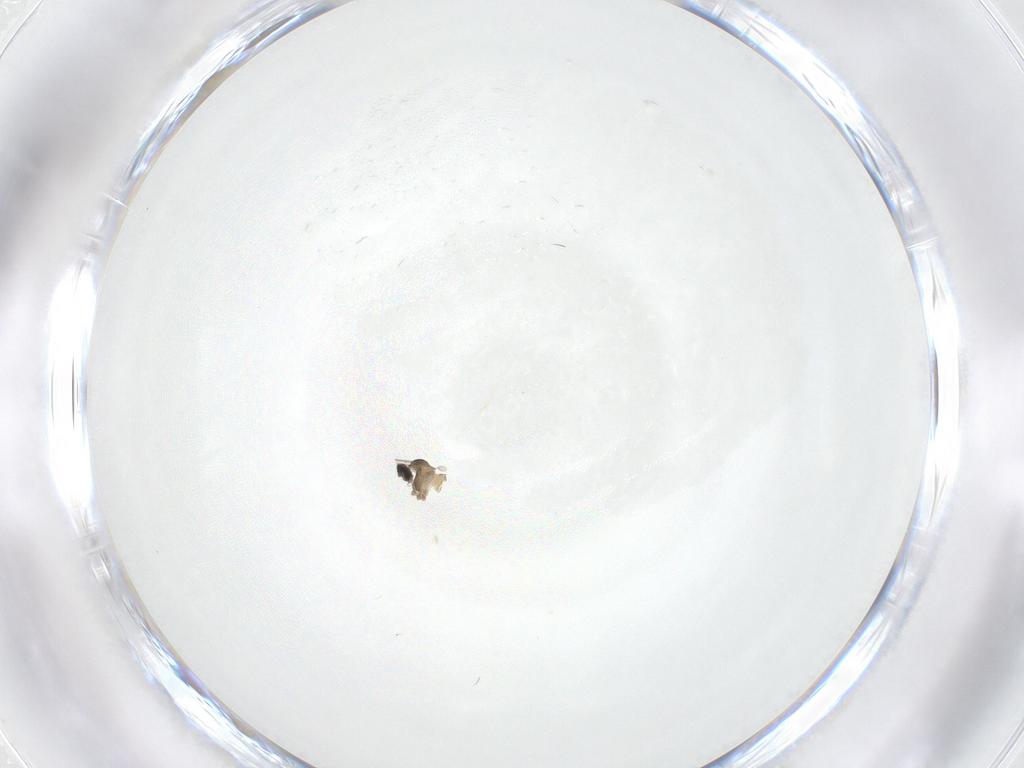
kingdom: Animalia
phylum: Arthropoda
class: Insecta
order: Diptera
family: Cecidomyiidae
